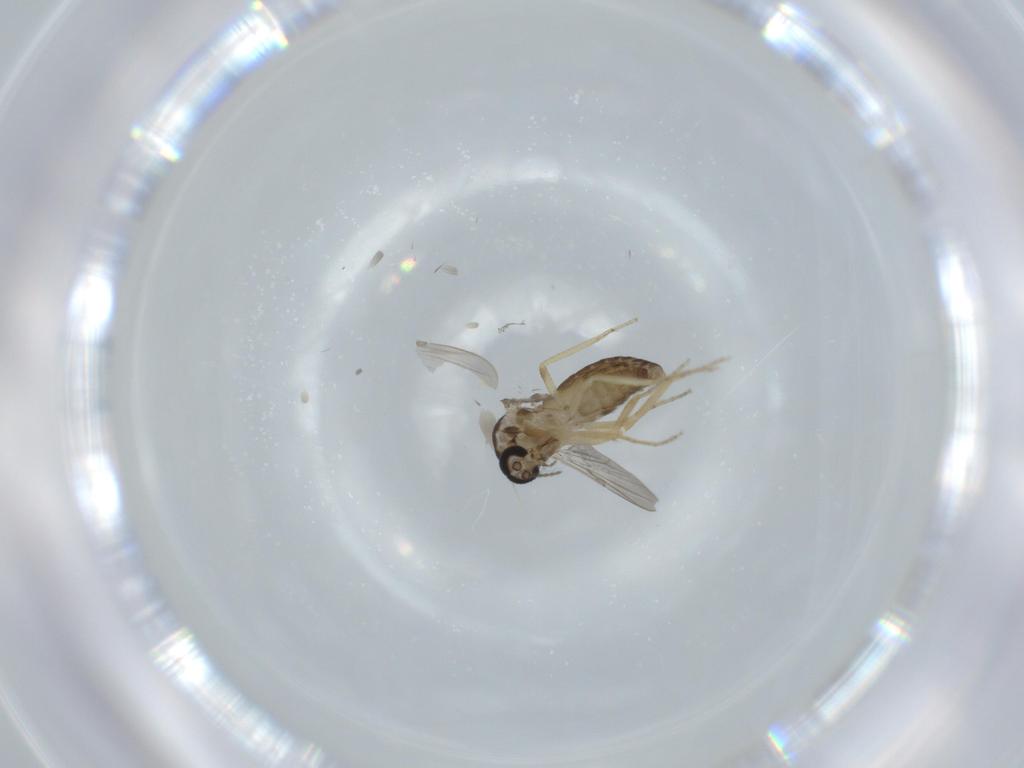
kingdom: Animalia
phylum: Arthropoda
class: Insecta
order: Diptera
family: Ceratopogonidae
